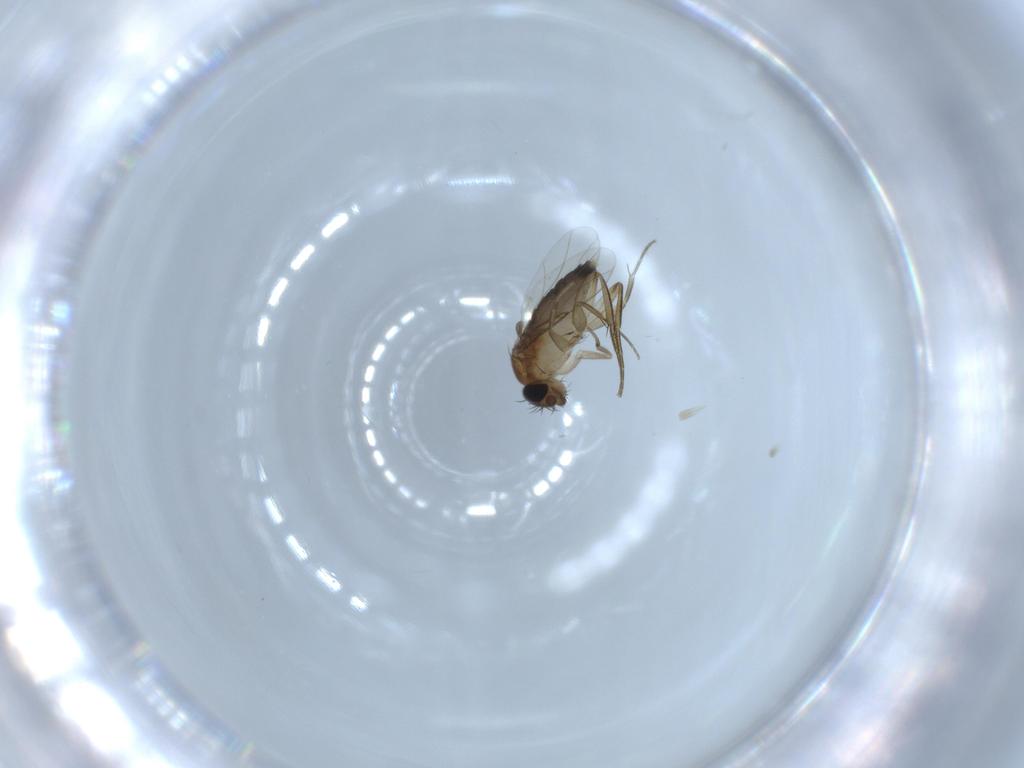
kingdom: Animalia
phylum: Arthropoda
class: Insecta
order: Diptera
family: Phoridae
